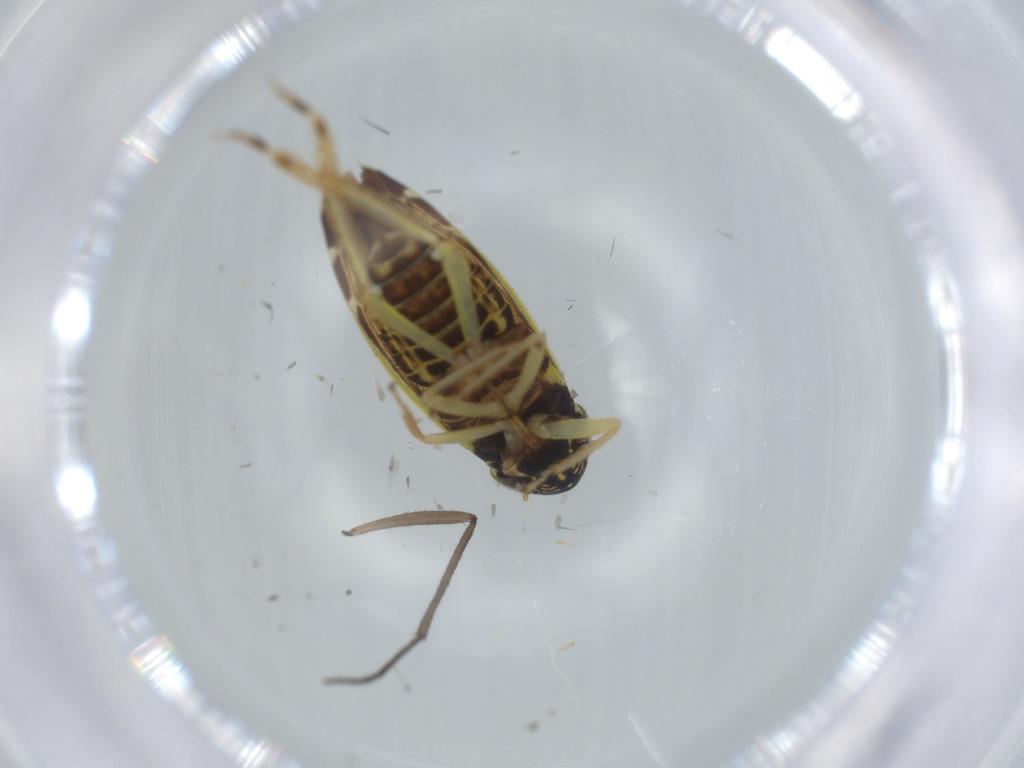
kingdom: Animalia
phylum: Arthropoda
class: Insecta
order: Hemiptera
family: Cicadellidae
